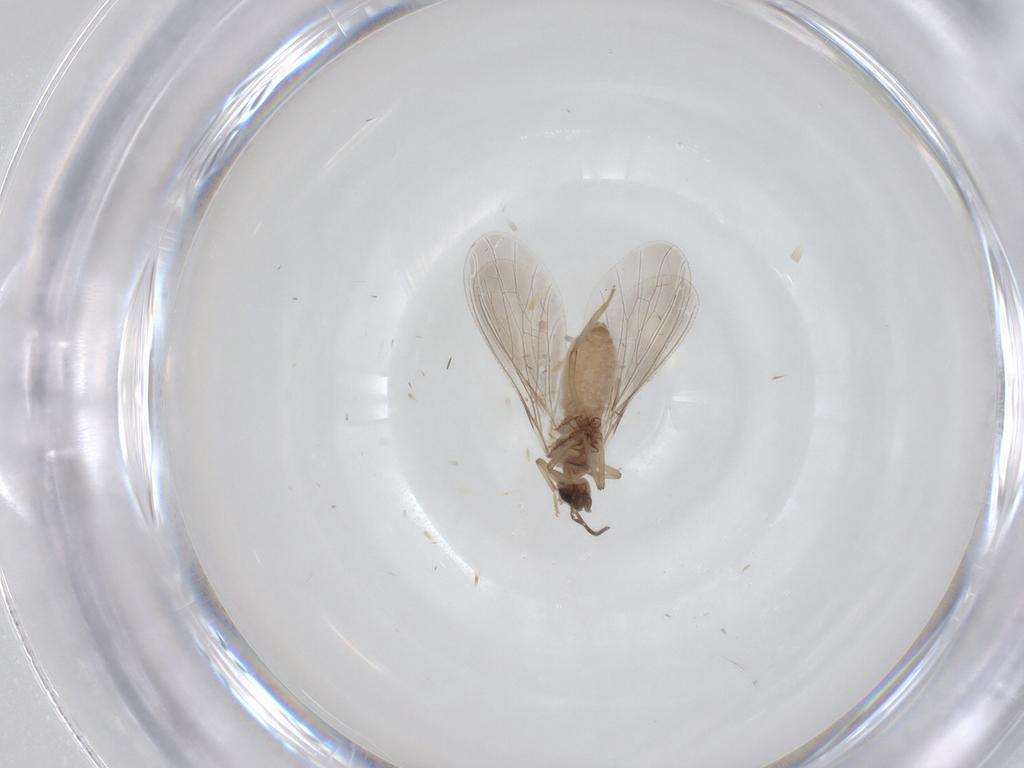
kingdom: Animalia
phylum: Arthropoda
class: Insecta
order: Neuroptera
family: Coniopterygidae
